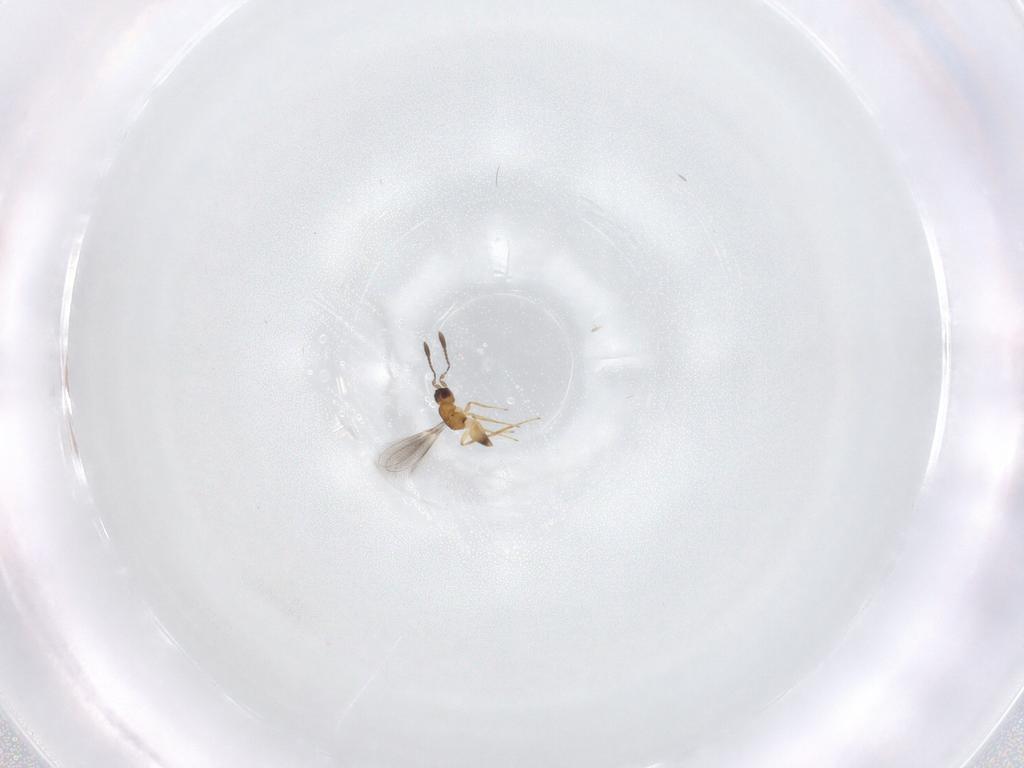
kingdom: Animalia
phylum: Arthropoda
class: Insecta
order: Hymenoptera
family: Mymaridae
